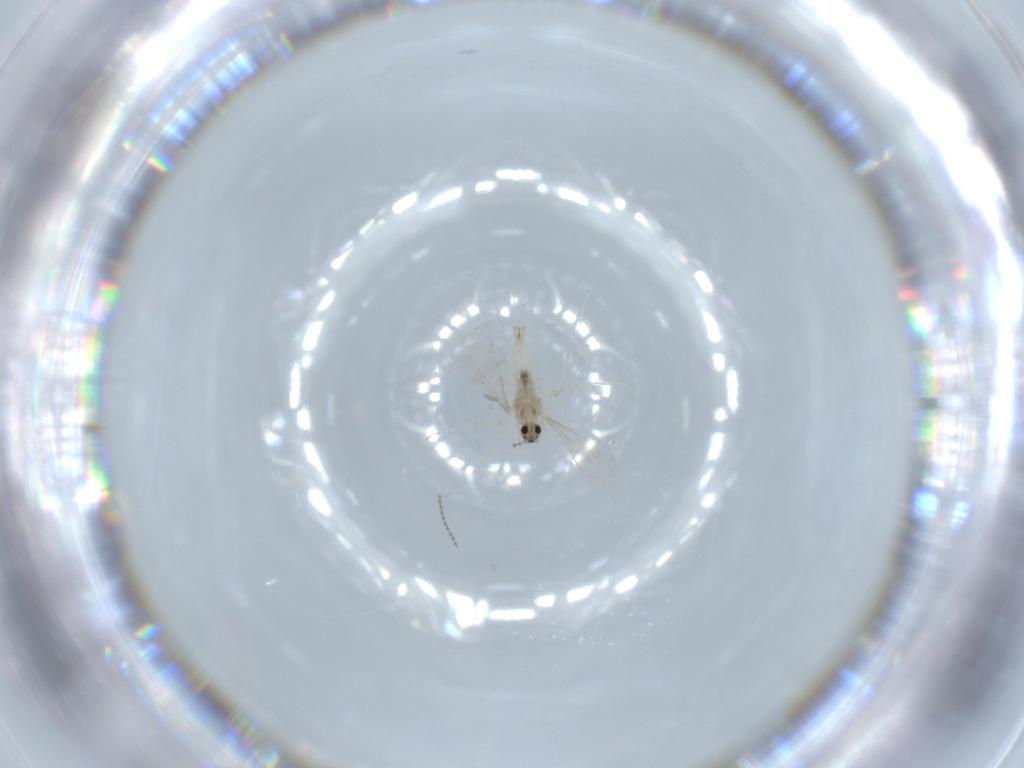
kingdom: Animalia
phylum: Arthropoda
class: Insecta
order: Diptera
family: Cecidomyiidae
